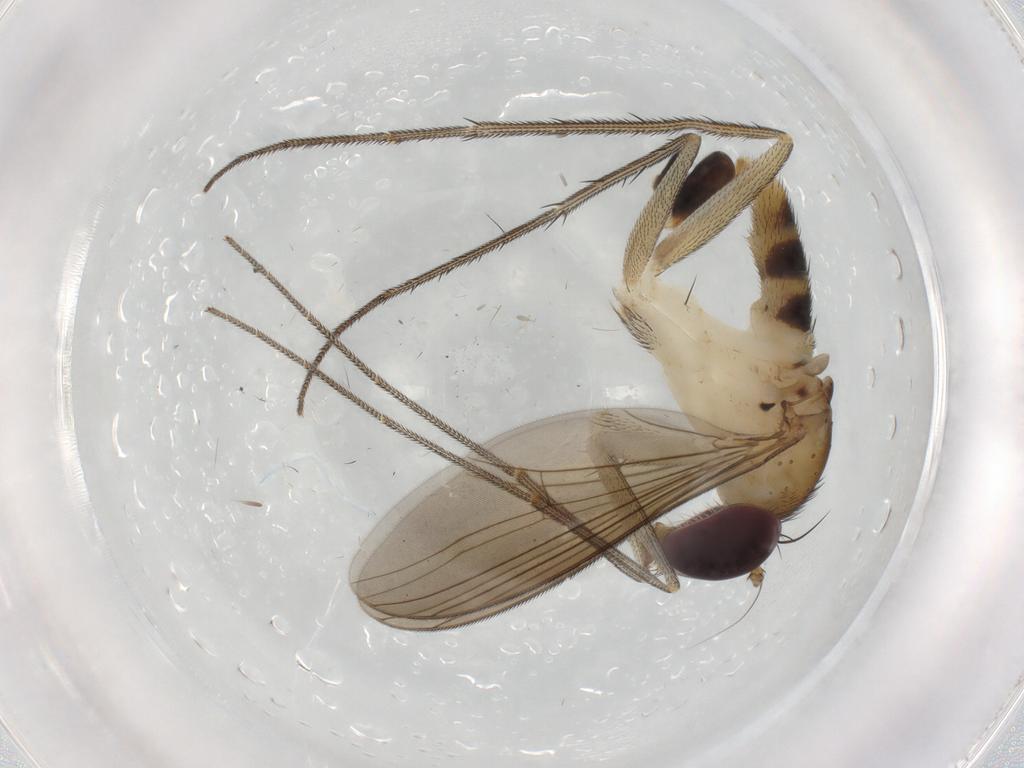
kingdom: Animalia
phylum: Arthropoda
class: Insecta
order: Diptera
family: Dolichopodidae
